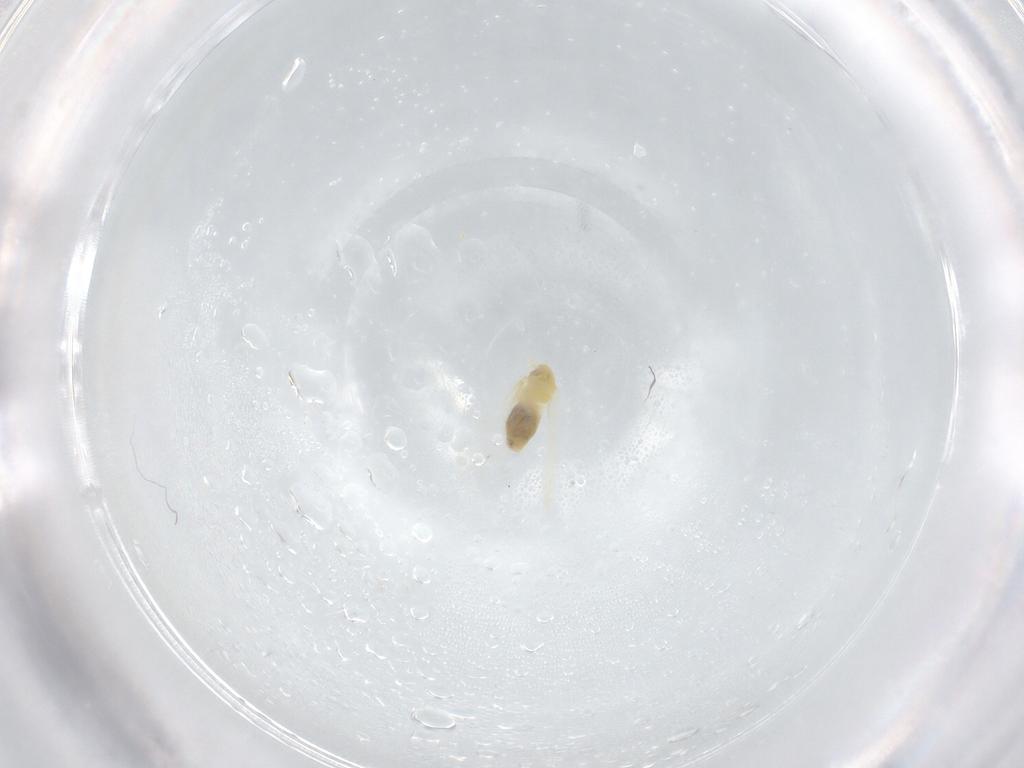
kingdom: Animalia
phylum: Arthropoda
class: Insecta
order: Hemiptera
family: Aleyrodidae
